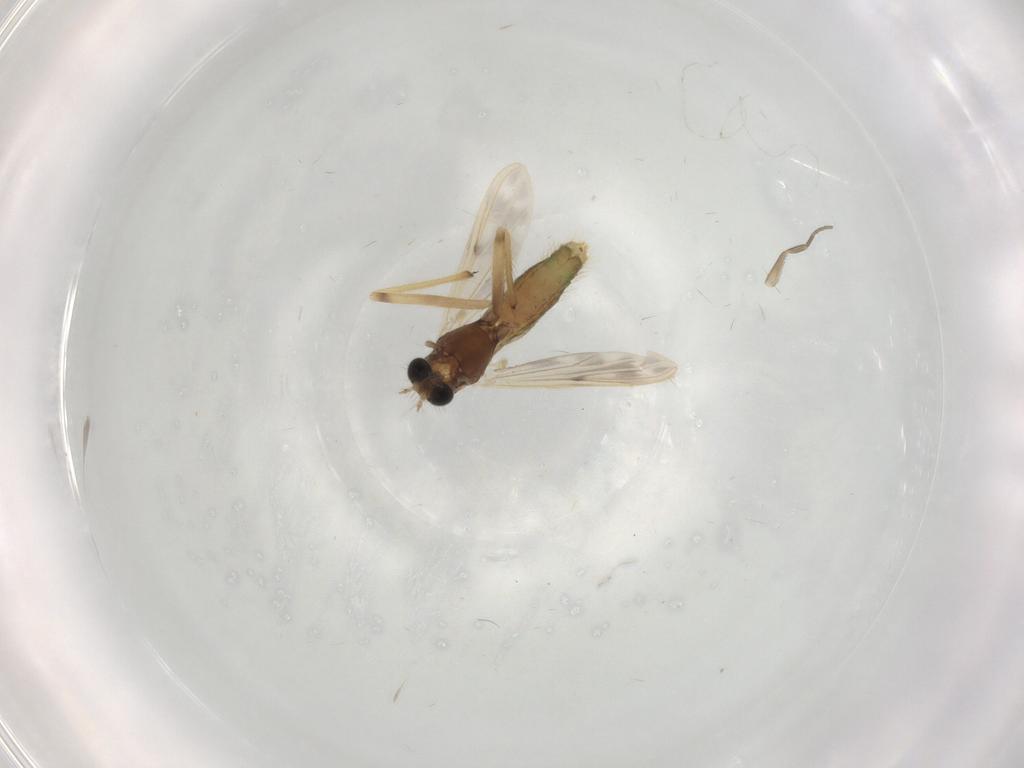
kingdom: Animalia
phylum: Arthropoda
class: Insecta
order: Diptera
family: Chironomidae
